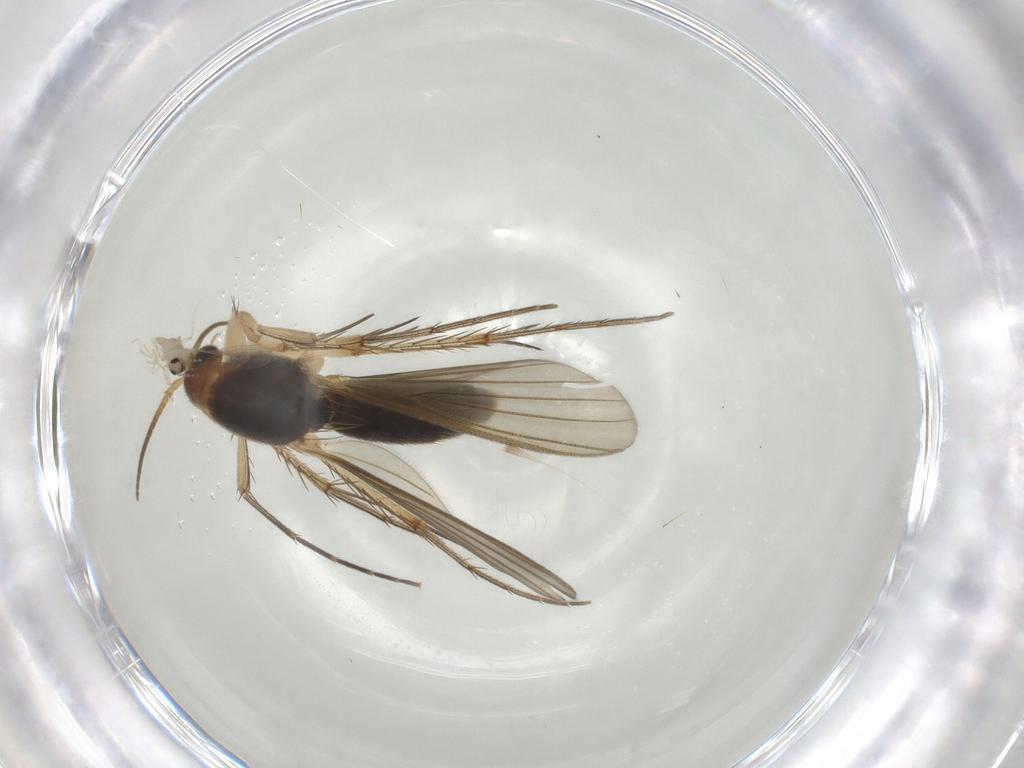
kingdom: Animalia
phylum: Arthropoda
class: Insecta
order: Diptera
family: Mycetophilidae
